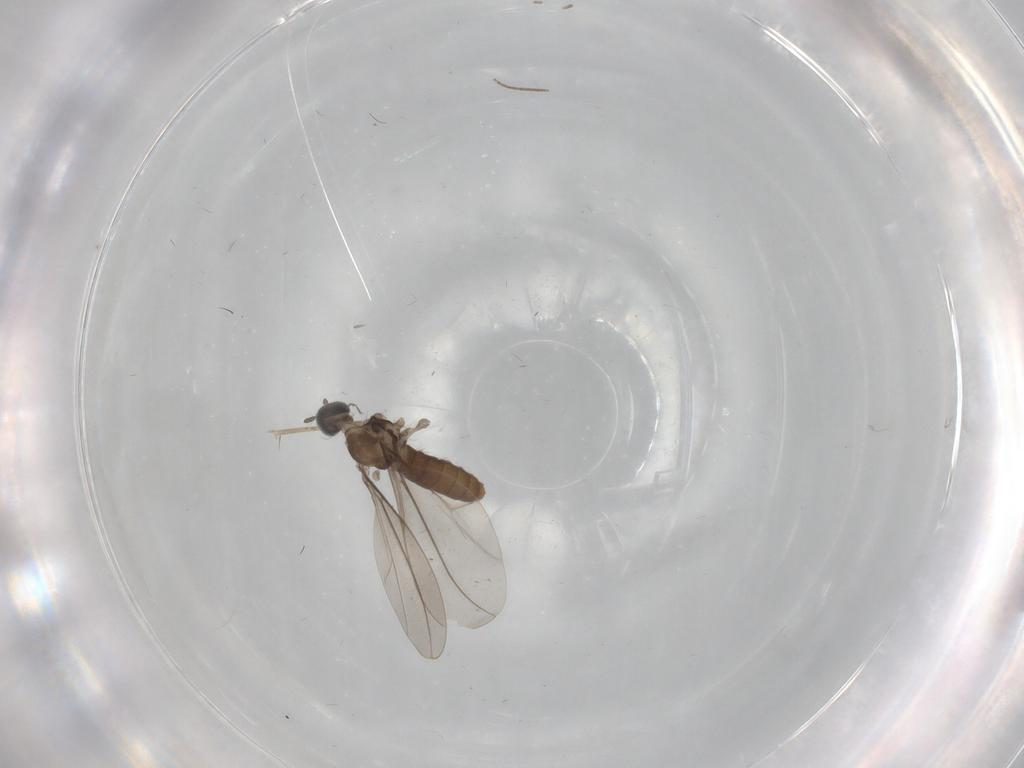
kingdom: Animalia
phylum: Arthropoda
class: Insecta
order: Diptera
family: Cecidomyiidae
